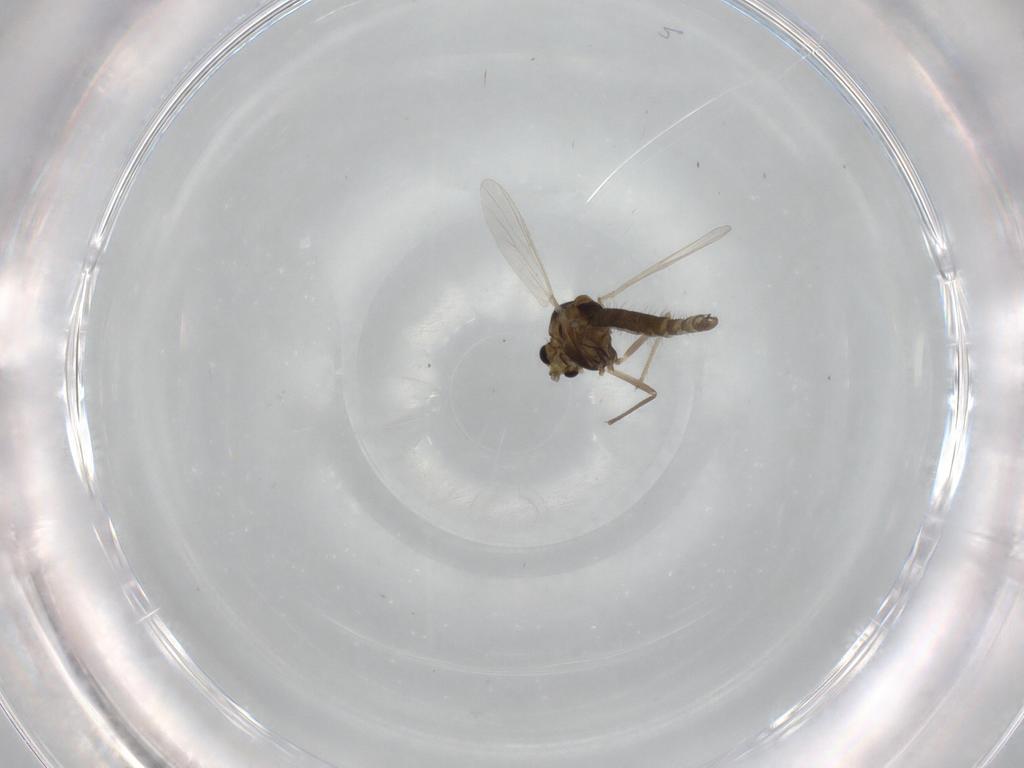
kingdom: Animalia
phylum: Arthropoda
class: Insecta
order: Diptera
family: Chironomidae
